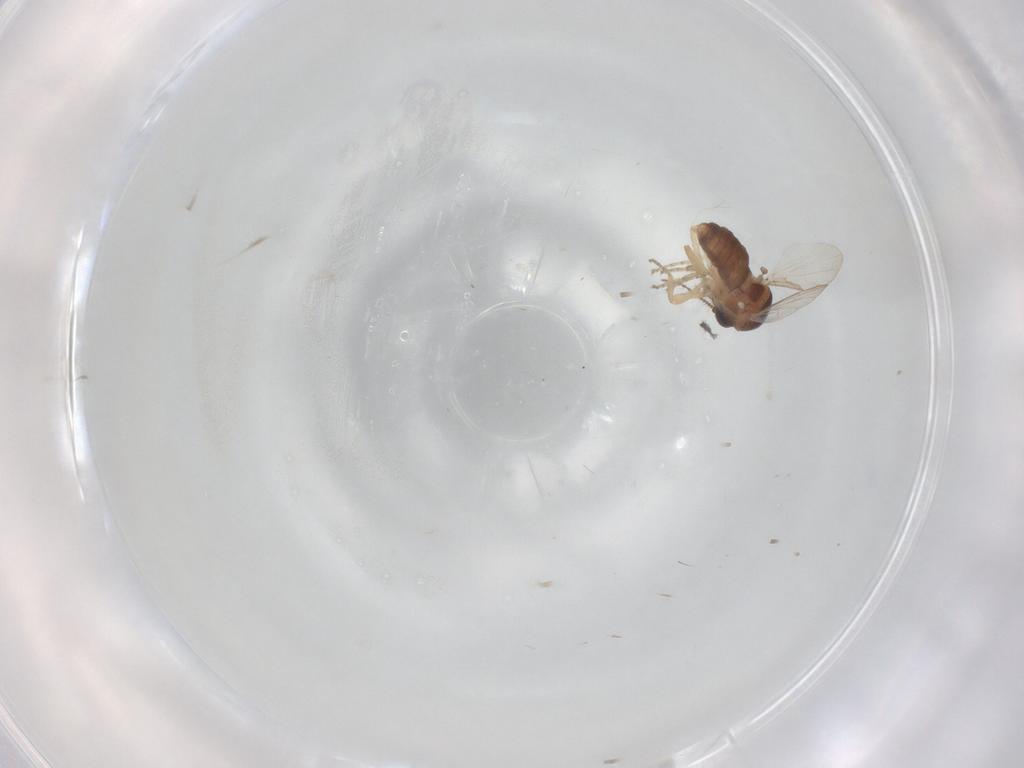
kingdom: Animalia
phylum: Arthropoda
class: Insecta
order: Diptera
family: Ceratopogonidae
